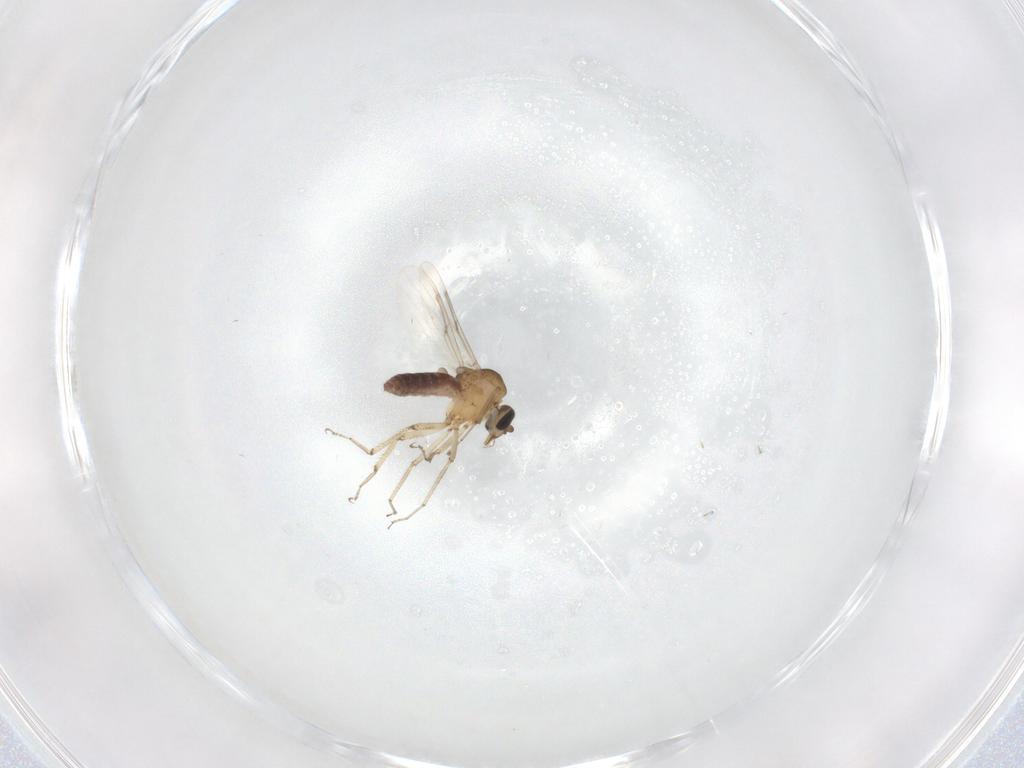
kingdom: Animalia
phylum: Arthropoda
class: Insecta
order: Diptera
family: Ceratopogonidae
